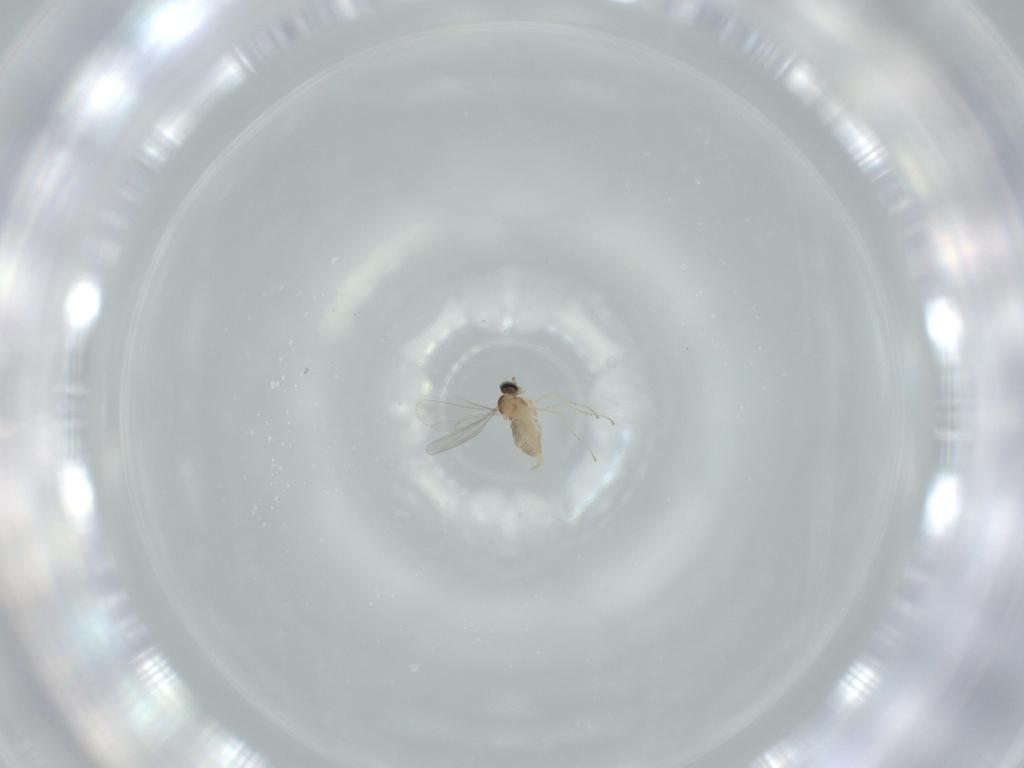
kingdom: Animalia
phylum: Arthropoda
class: Insecta
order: Diptera
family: Cecidomyiidae
